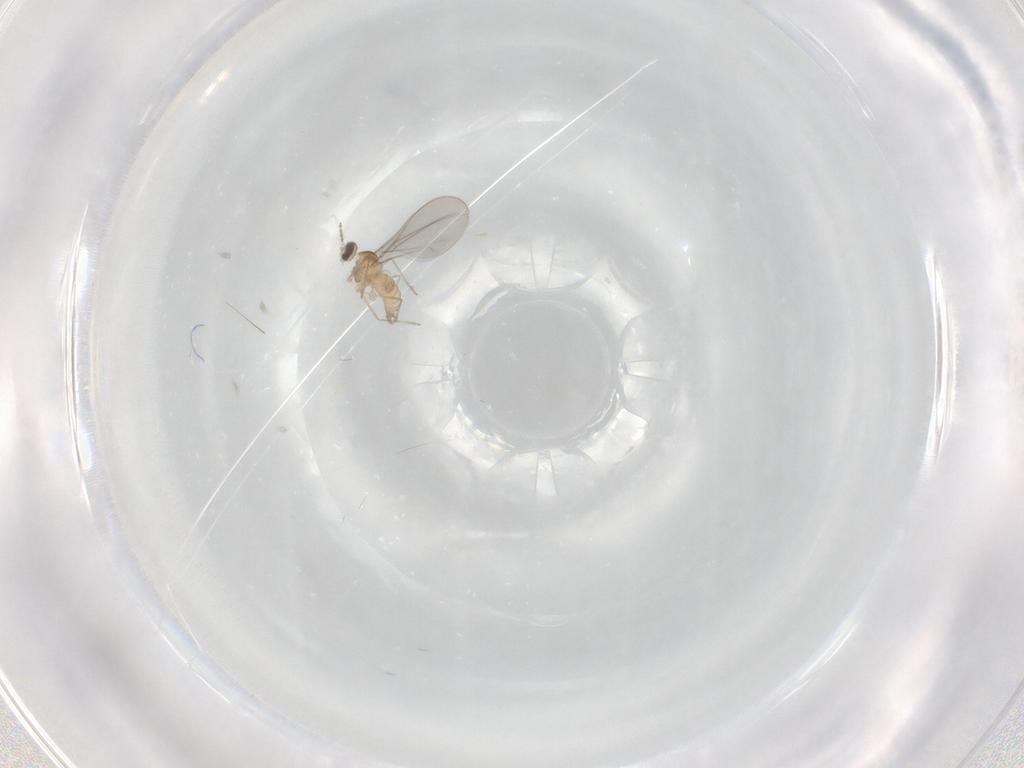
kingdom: Animalia
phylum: Arthropoda
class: Insecta
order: Diptera
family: Cecidomyiidae
